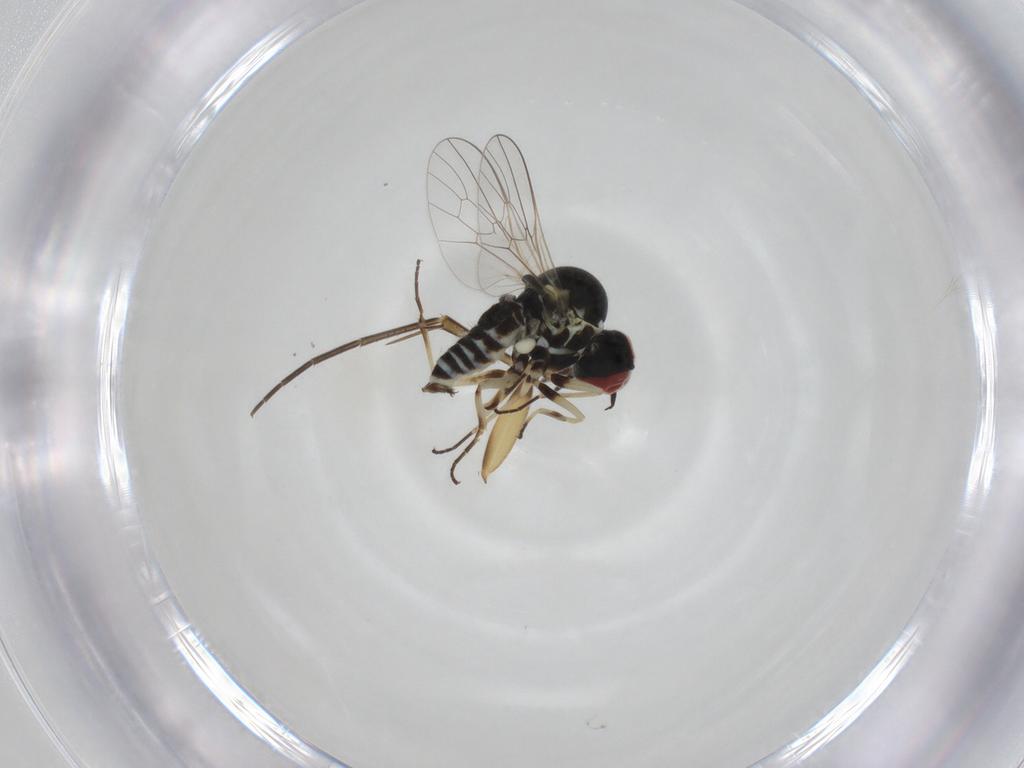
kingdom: Animalia
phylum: Arthropoda
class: Insecta
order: Diptera
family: Mycetophilidae
